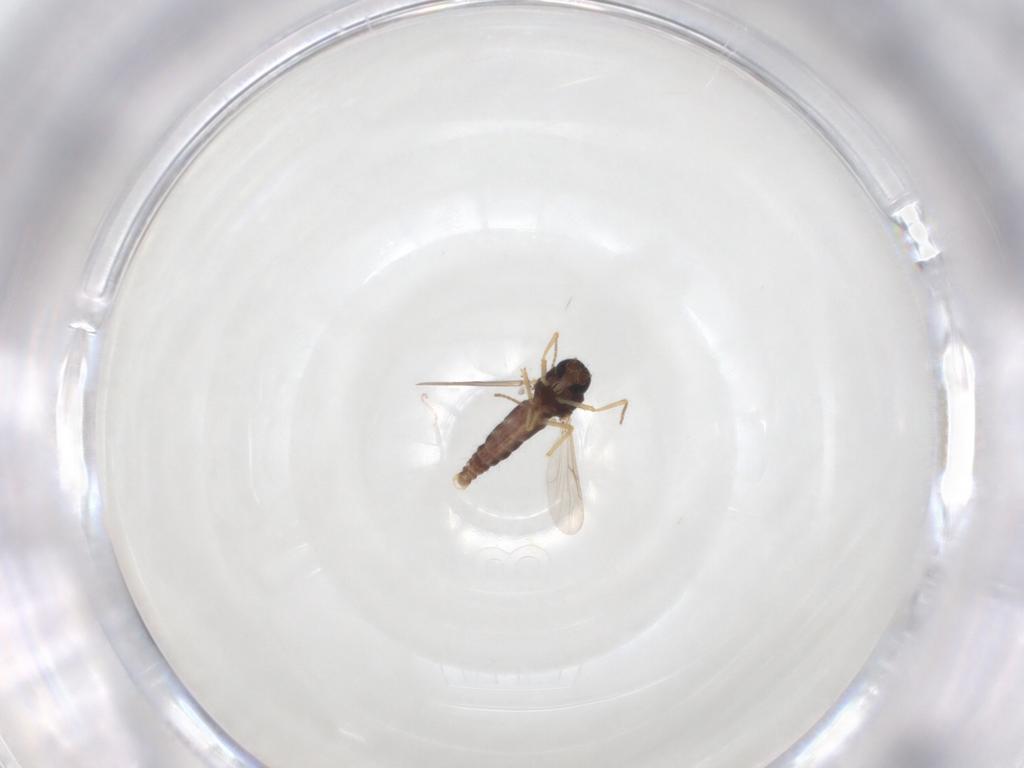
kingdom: Animalia
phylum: Arthropoda
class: Insecta
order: Diptera
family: Ceratopogonidae
